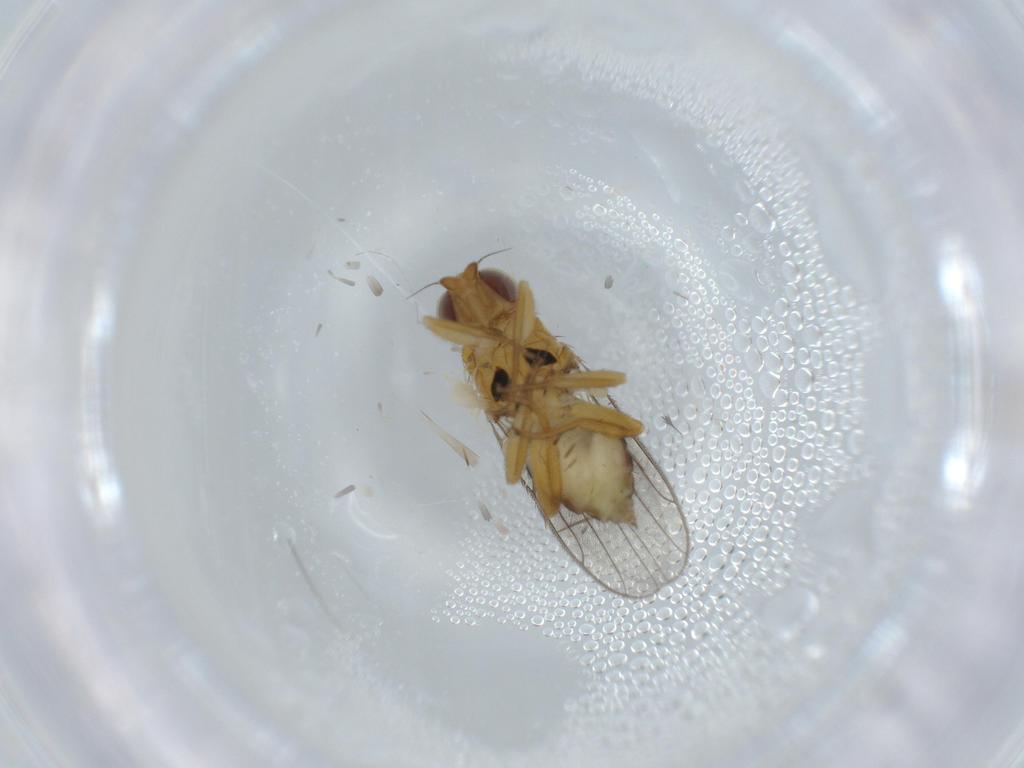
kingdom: Animalia
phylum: Arthropoda
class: Insecta
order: Diptera
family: Chloropidae
